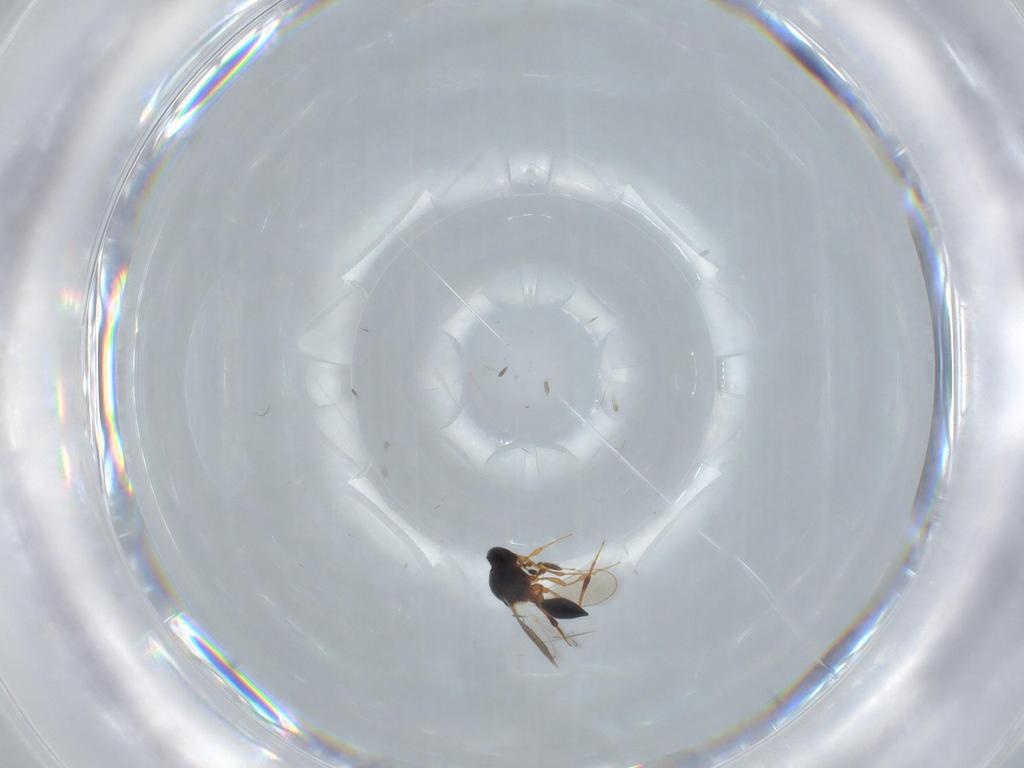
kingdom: Animalia
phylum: Arthropoda
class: Insecta
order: Hymenoptera
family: Platygastridae
